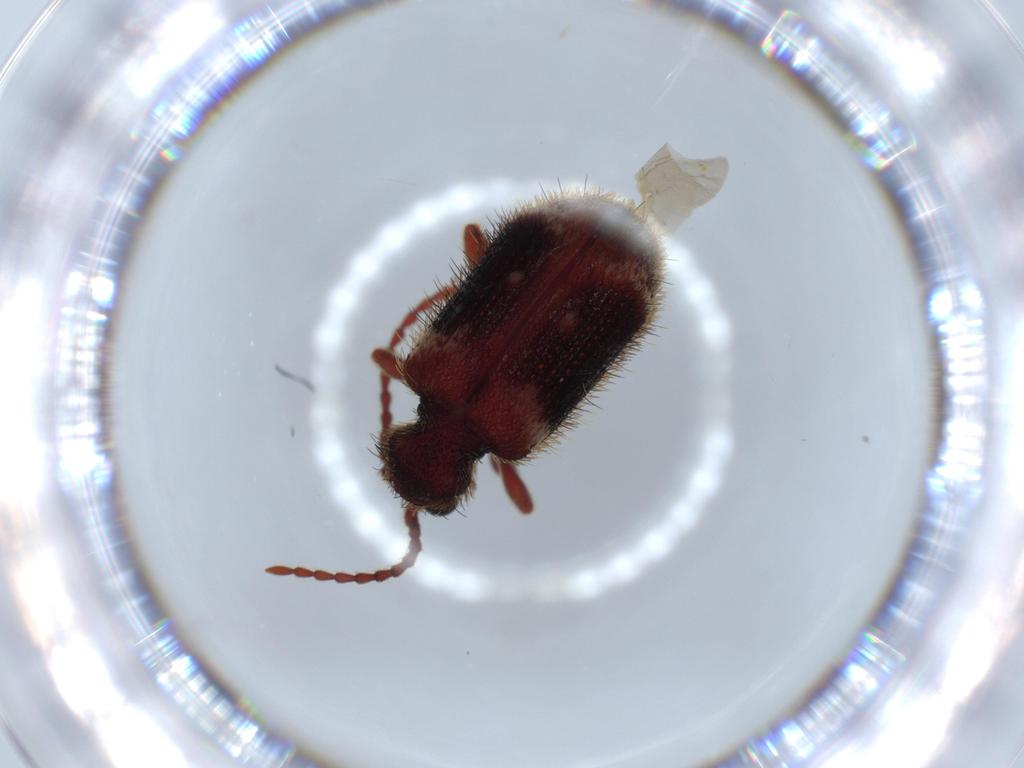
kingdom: Animalia
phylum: Arthropoda
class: Insecta
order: Coleoptera
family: Ptinidae
